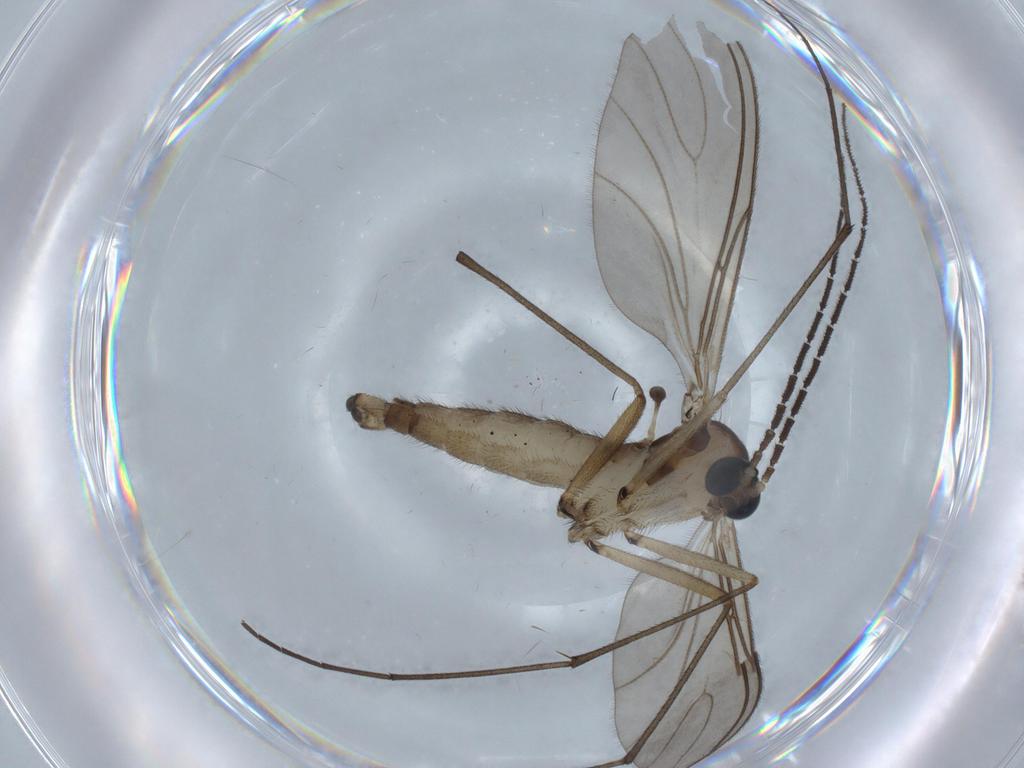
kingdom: Animalia
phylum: Arthropoda
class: Insecta
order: Diptera
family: Sciaridae
